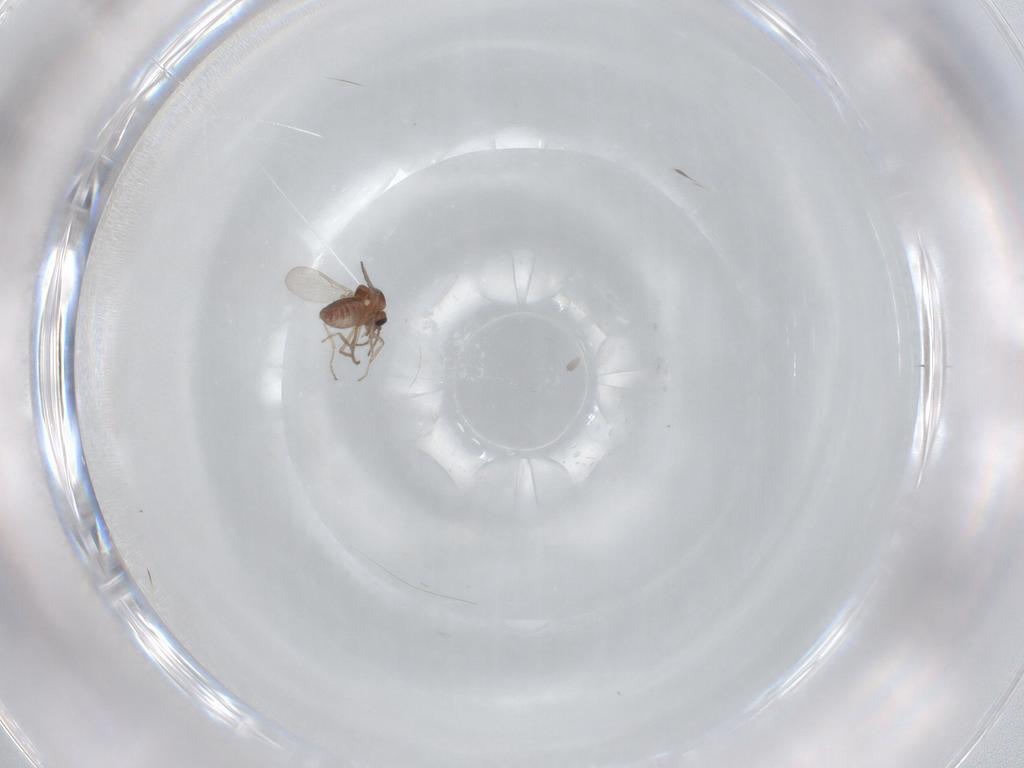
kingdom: Animalia
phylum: Arthropoda
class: Insecta
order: Diptera
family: Ceratopogonidae
